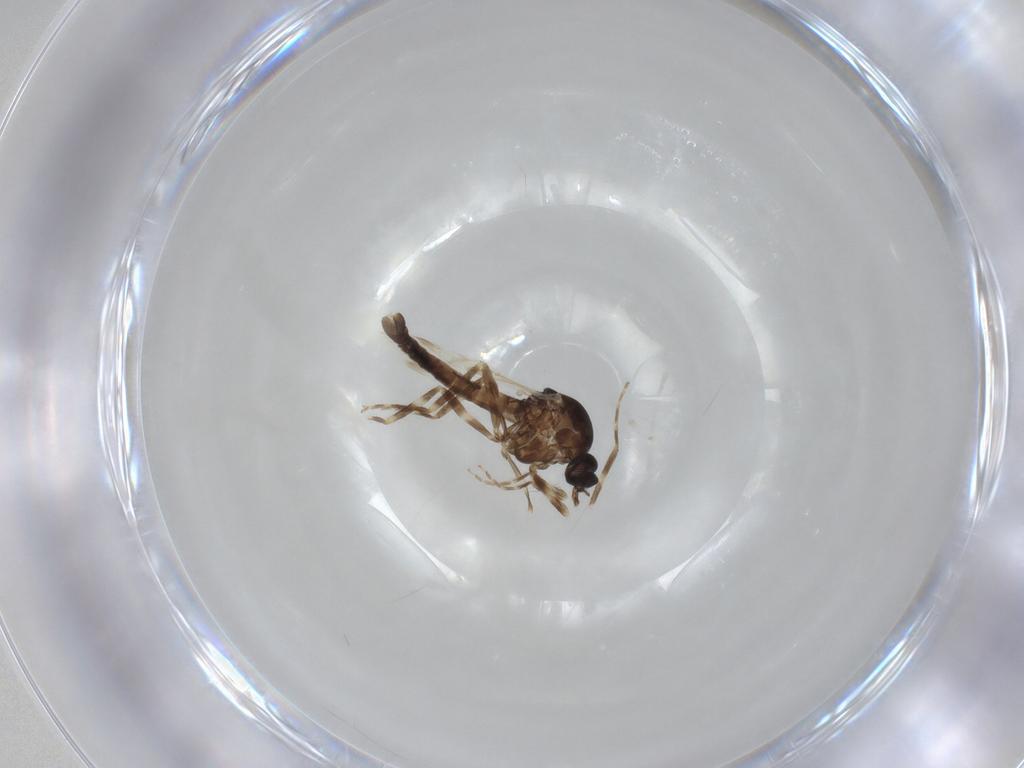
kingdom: Animalia
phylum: Arthropoda
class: Insecta
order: Diptera
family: Ceratopogonidae
